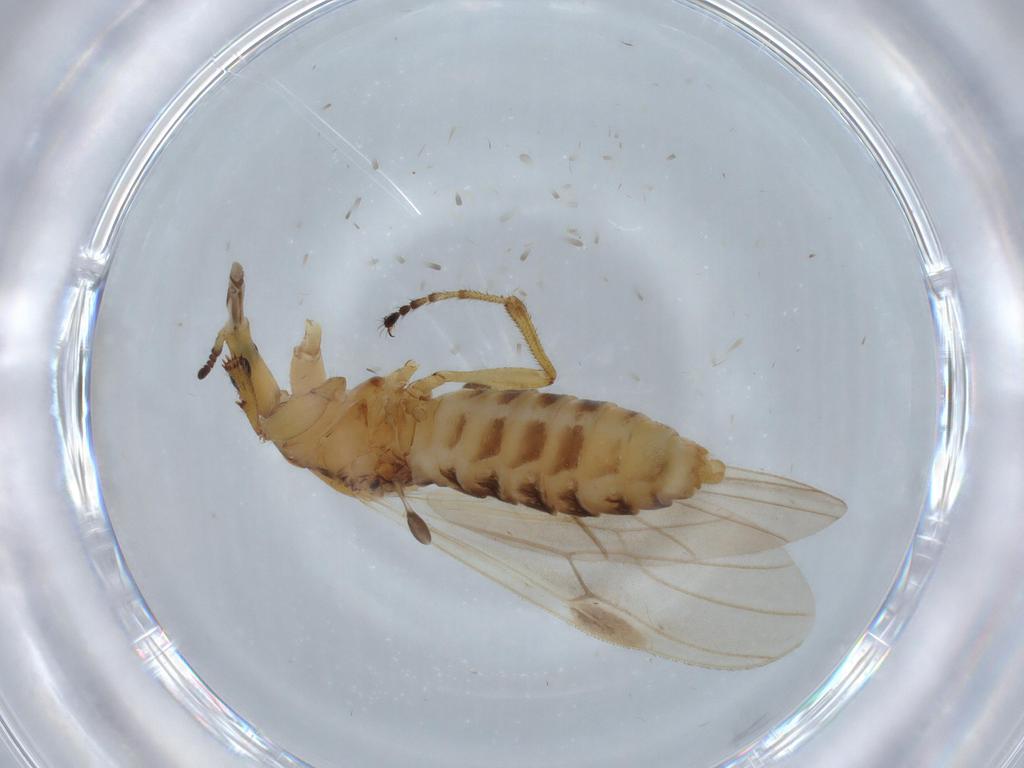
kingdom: Animalia
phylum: Arthropoda
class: Insecta
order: Diptera
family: Bibionidae
